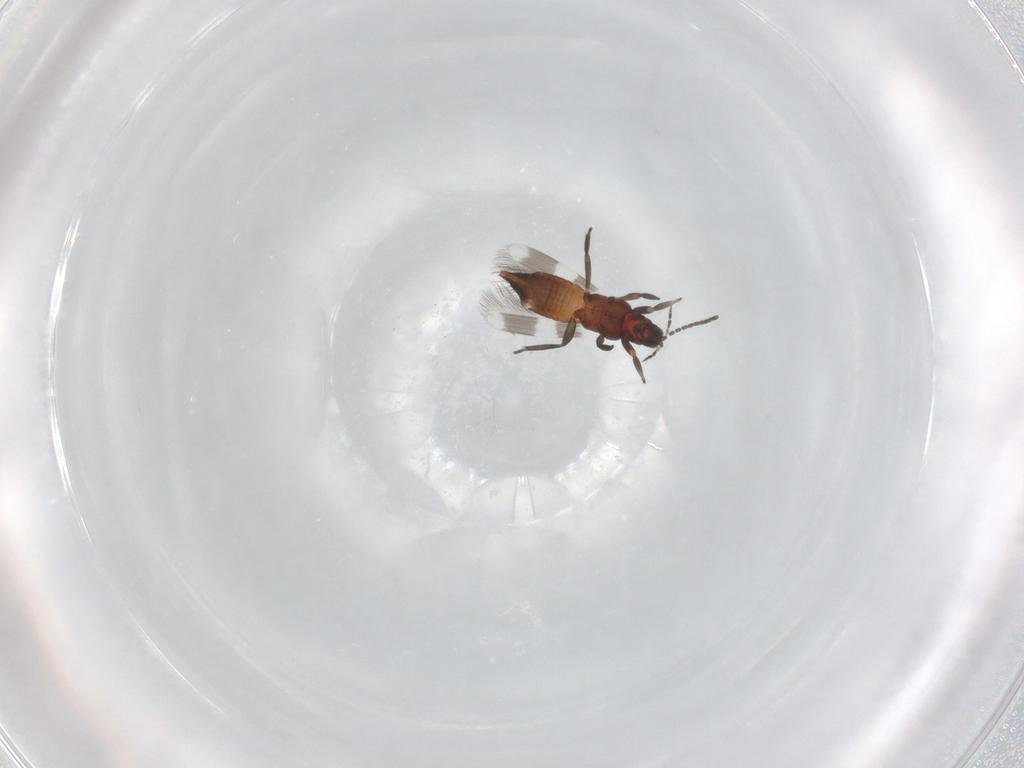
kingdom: Animalia
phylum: Arthropoda
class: Insecta
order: Thysanoptera
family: Aeolothripidae
